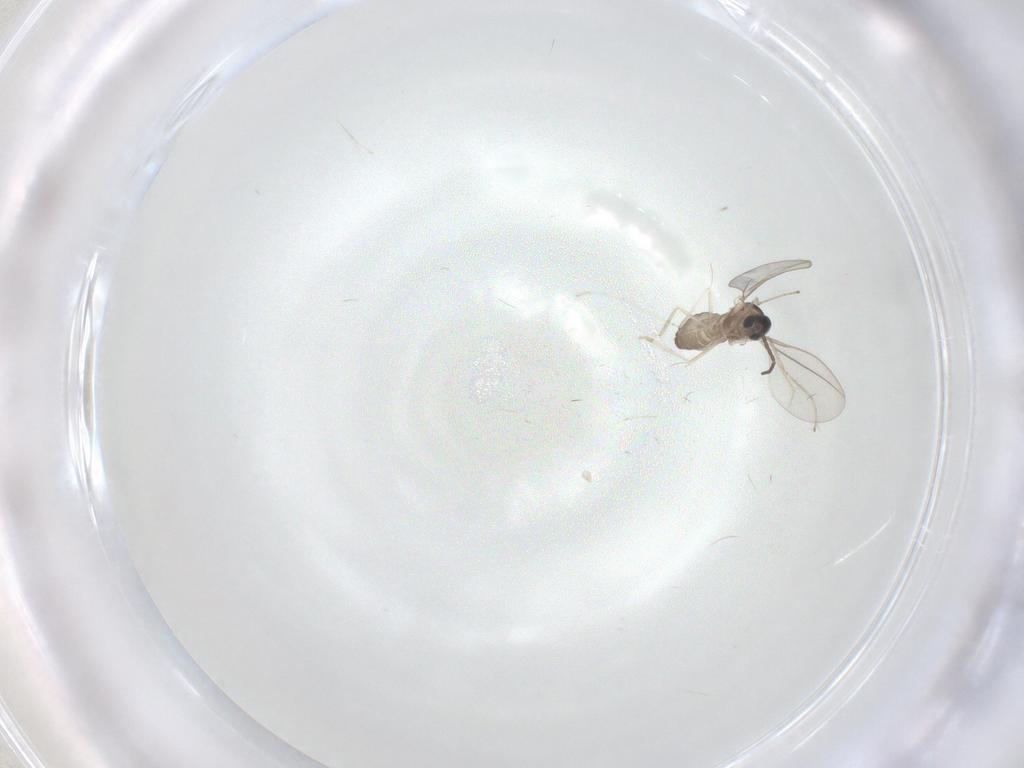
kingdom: Animalia
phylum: Arthropoda
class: Insecta
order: Diptera
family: Cecidomyiidae
